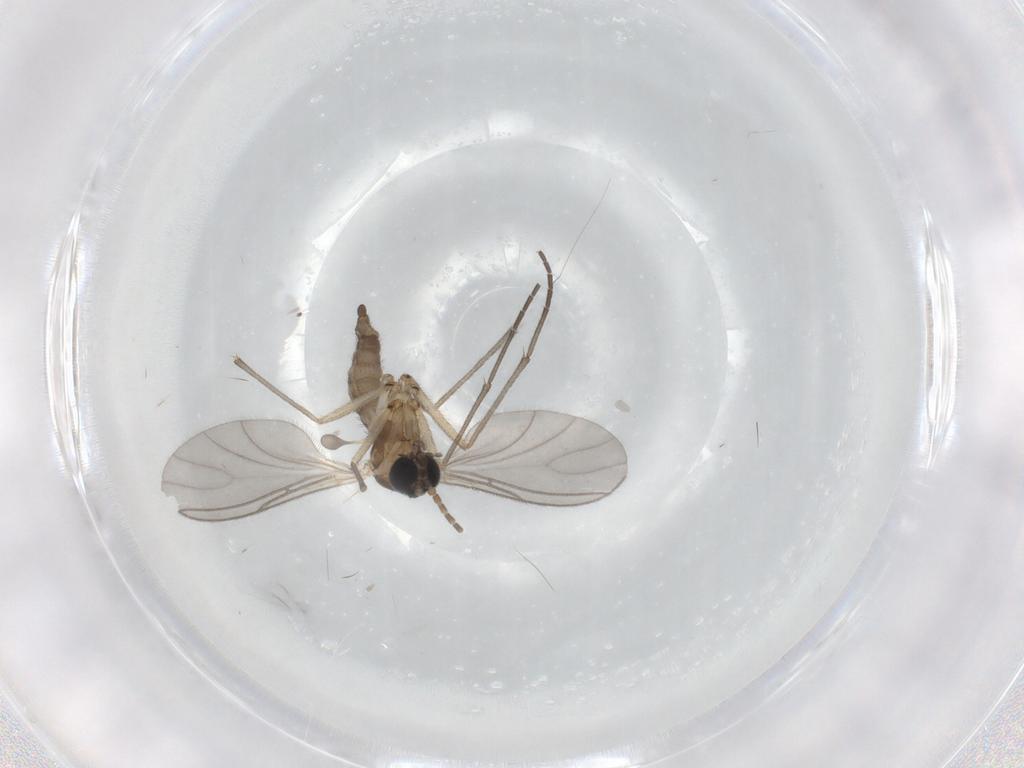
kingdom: Animalia
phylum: Arthropoda
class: Insecta
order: Diptera
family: Sciaridae
